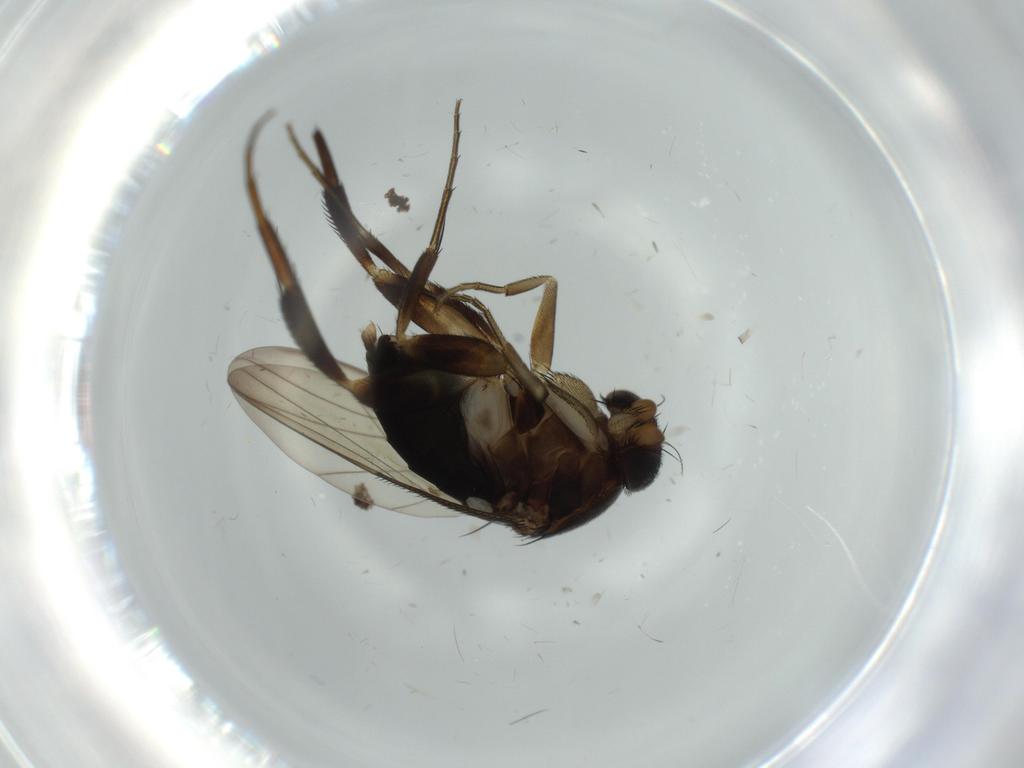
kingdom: Animalia
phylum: Arthropoda
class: Insecta
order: Diptera
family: Phoridae
